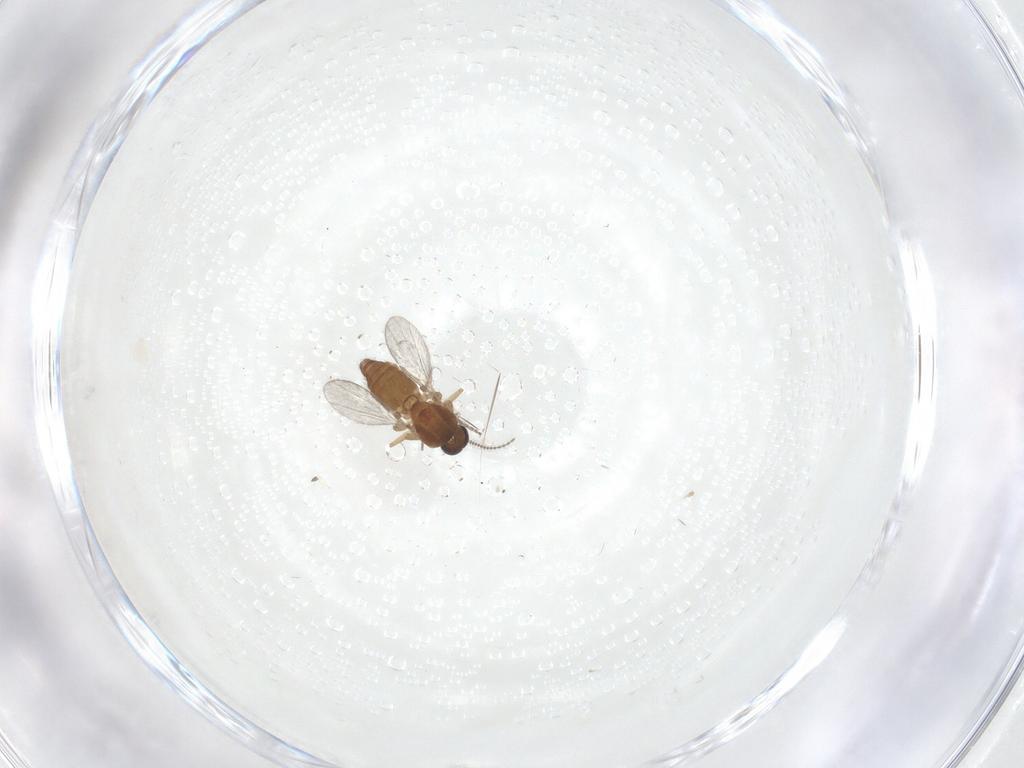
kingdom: Animalia
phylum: Arthropoda
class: Insecta
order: Diptera
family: Ceratopogonidae
